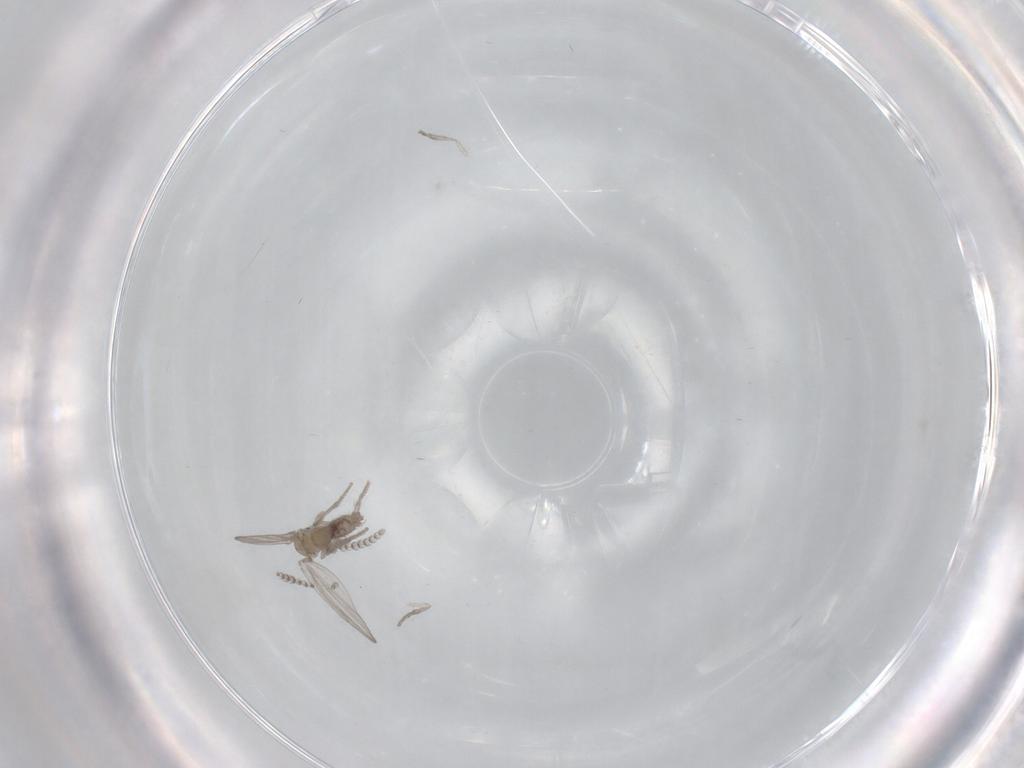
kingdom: Animalia
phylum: Arthropoda
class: Insecta
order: Diptera
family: Psychodidae
